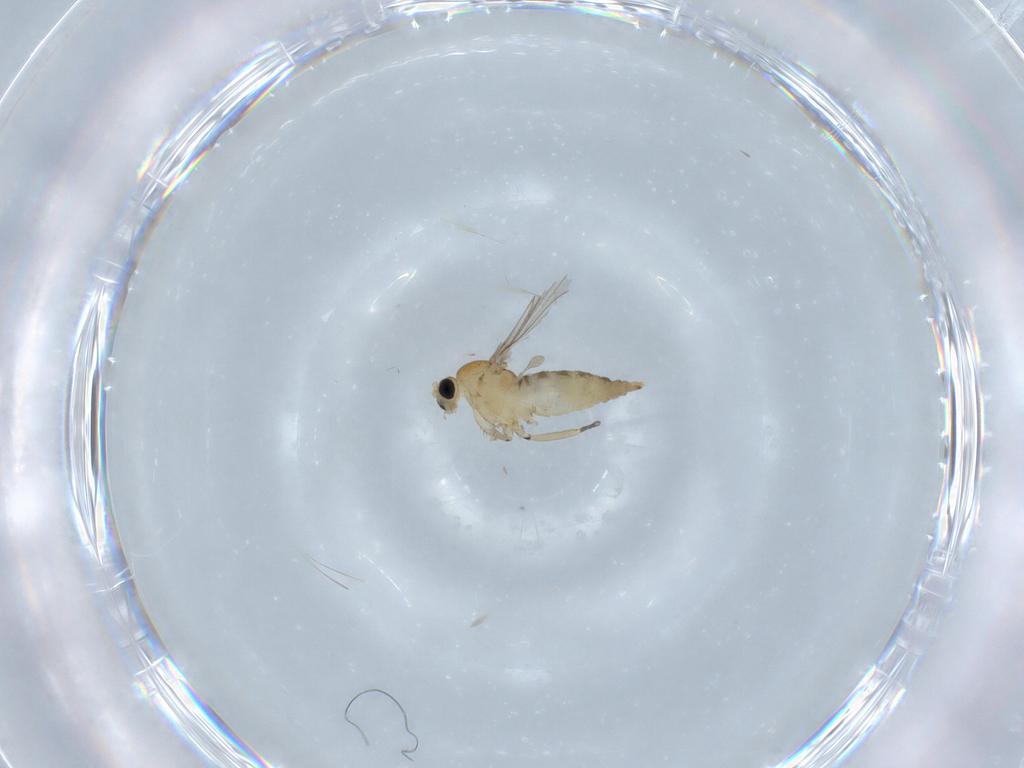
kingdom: Animalia
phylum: Arthropoda
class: Insecta
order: Diptera
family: Sciaridae
